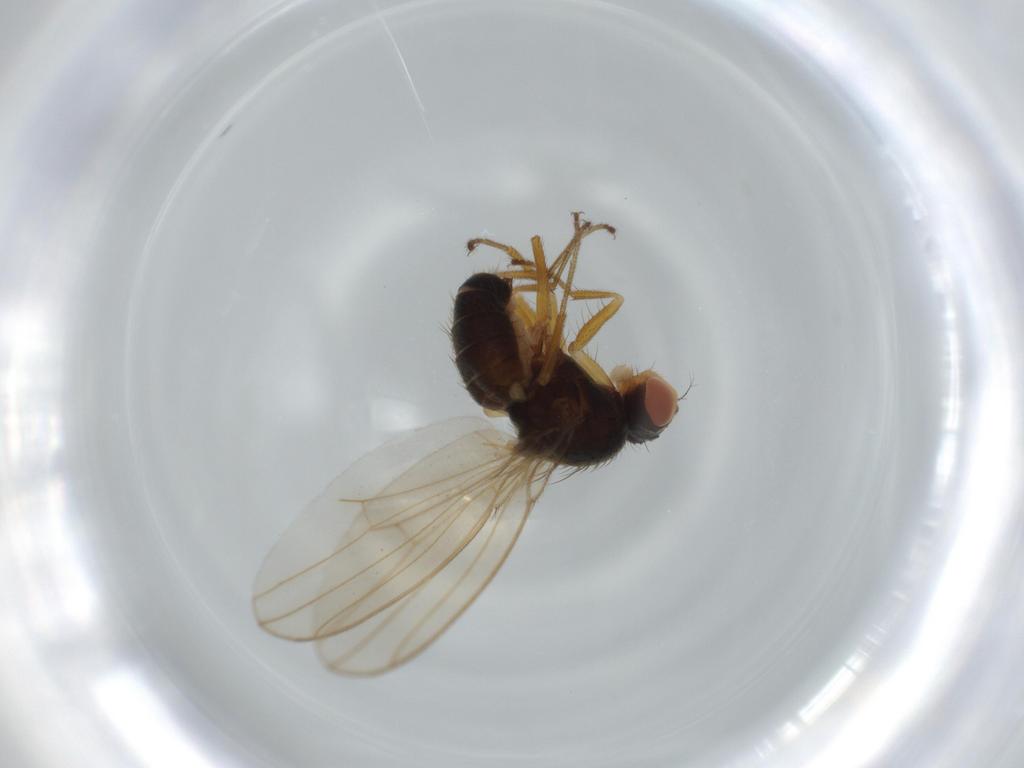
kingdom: Animalia
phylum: Arthropoda
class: Insecta
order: Diptera
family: Drosophilidae
